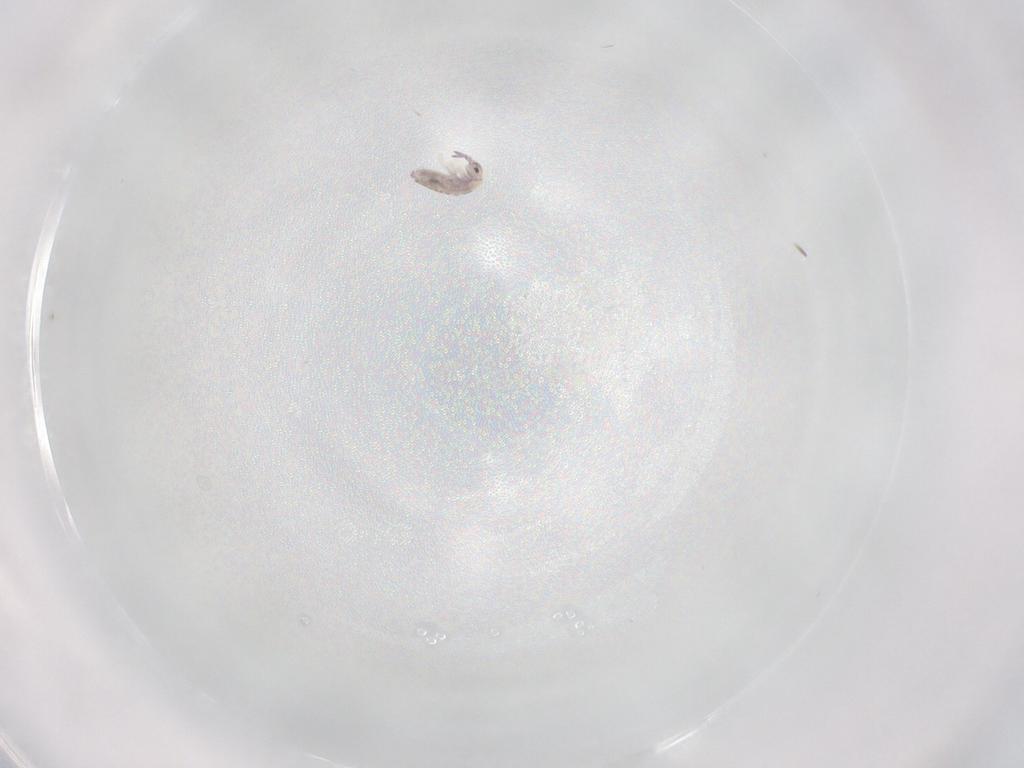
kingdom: Animalia
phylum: Arthropoda
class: Collembola
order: Entomobryomorpha
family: Entomobryidae
